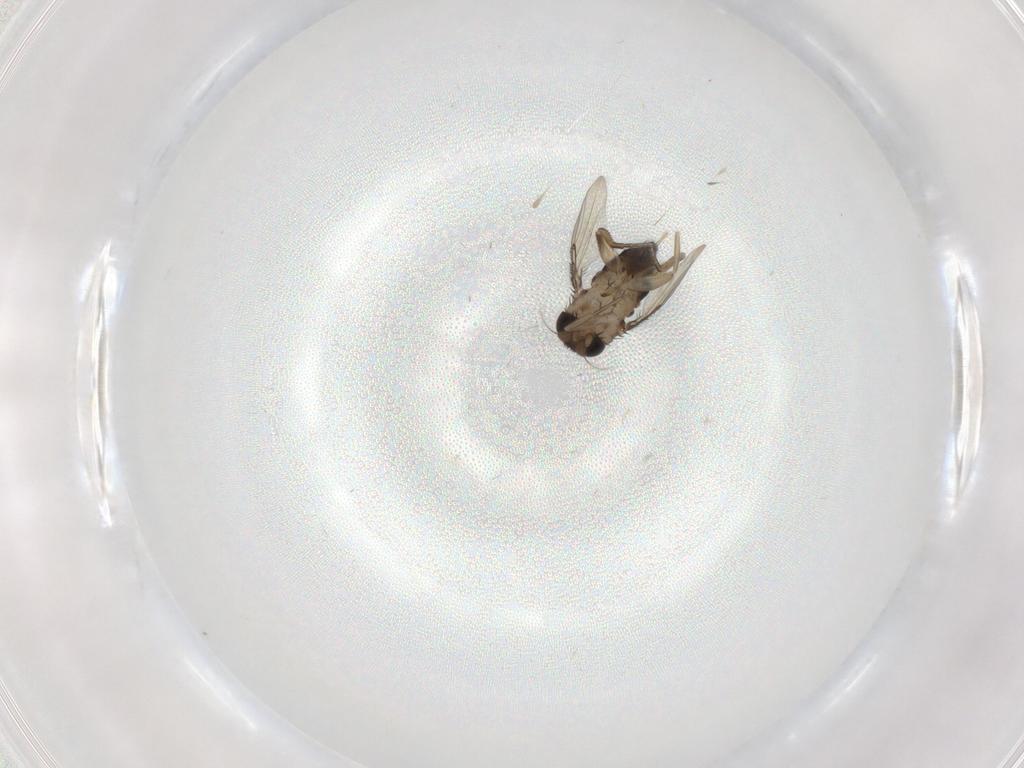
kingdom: Animalia
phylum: Arthropoda
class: Insecta
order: Diptera
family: Phoridae
